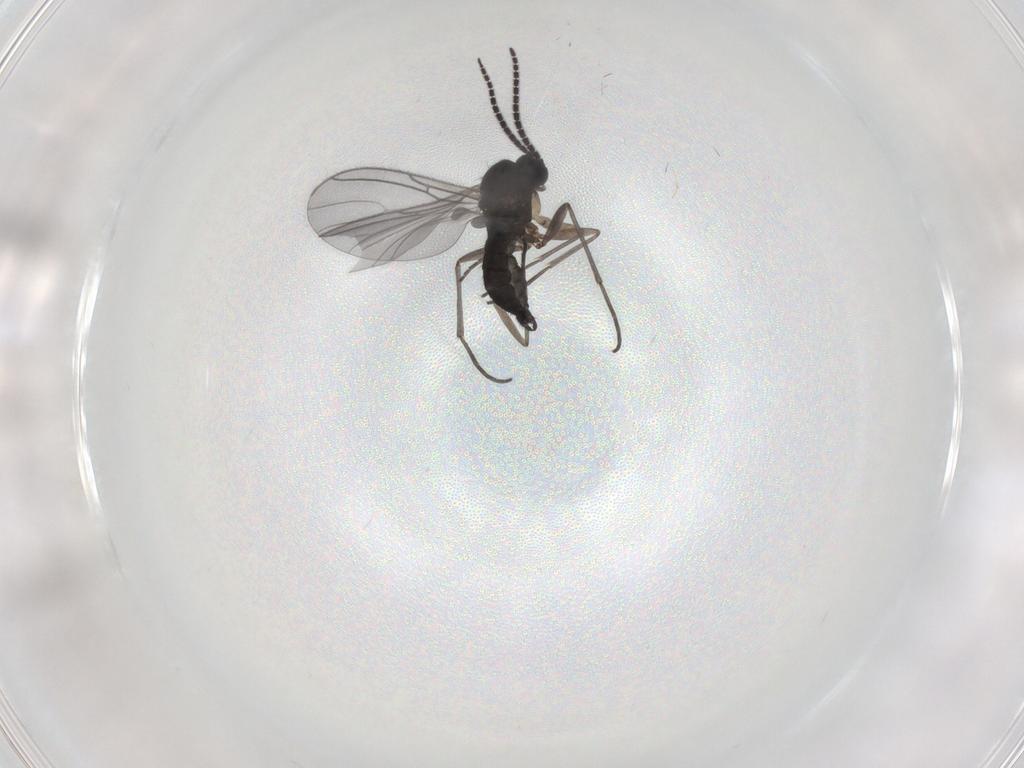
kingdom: Animalia
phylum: Arthropoda
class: Insecta
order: Diptera
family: Sciaridae
